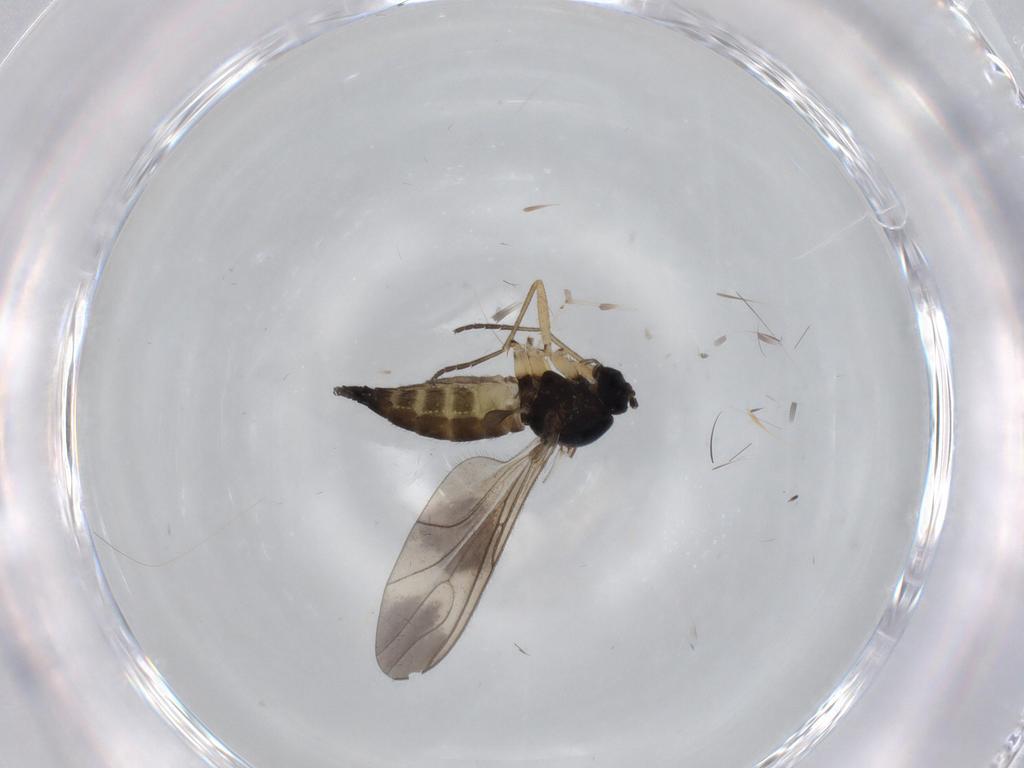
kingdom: Animalia
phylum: Arthropoda
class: Insecta
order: Diptera
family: Sciaridae
